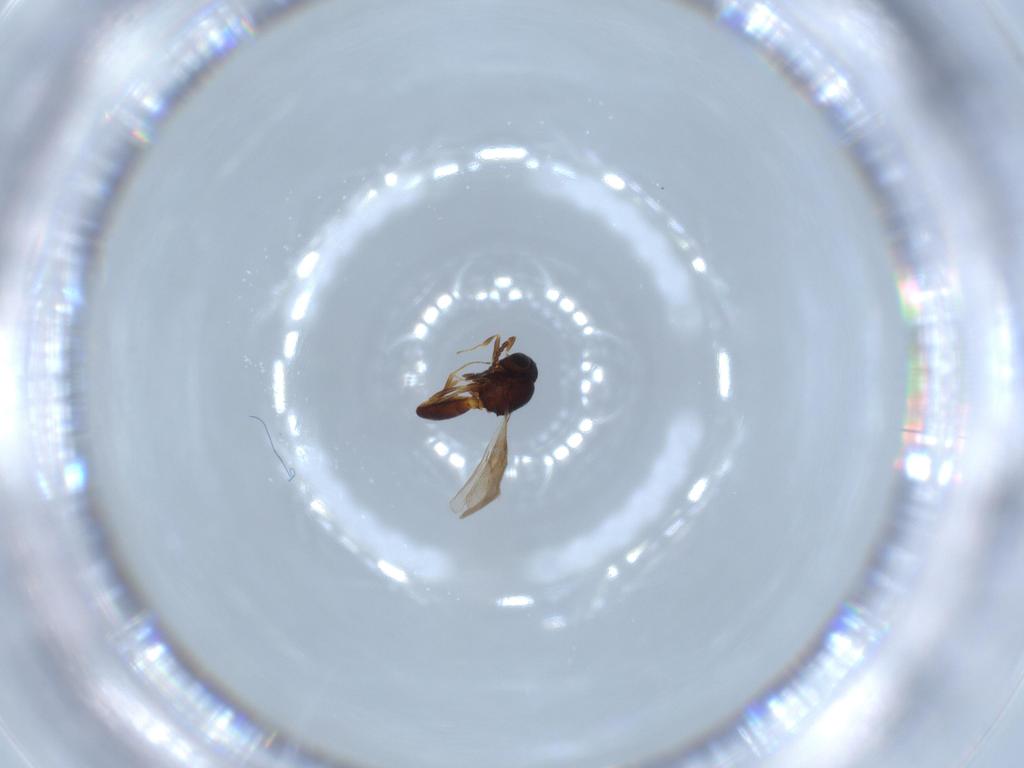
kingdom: Animalia
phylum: Arthropoda
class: Insecta
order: Hymenoptera
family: Scelionidae
